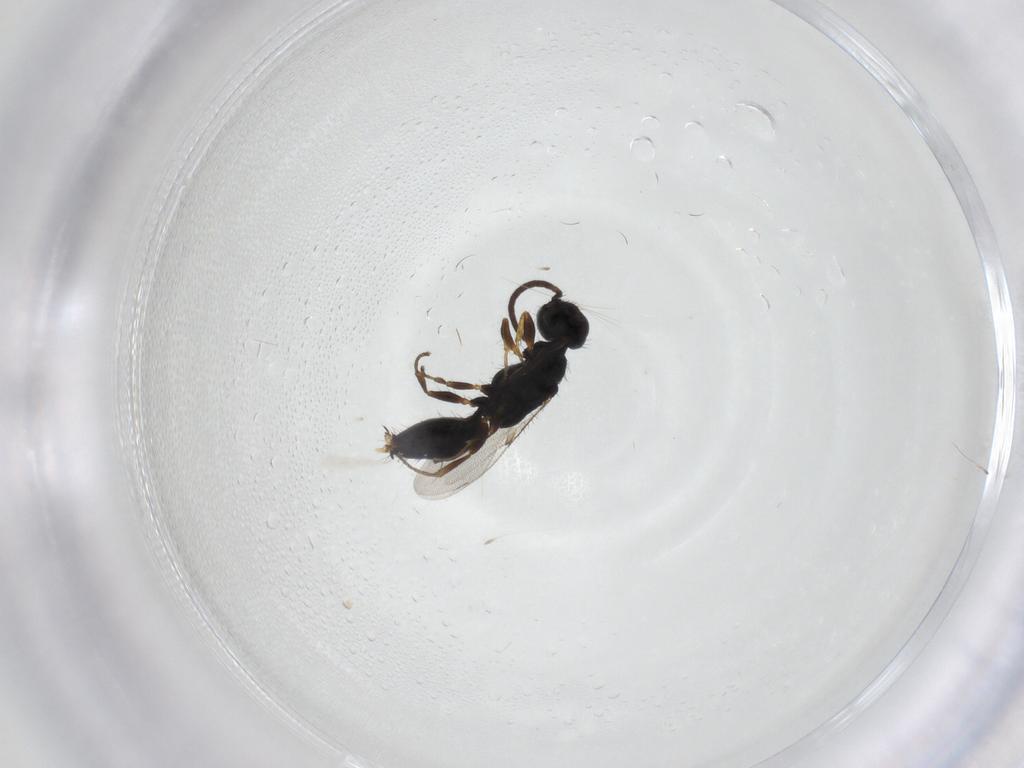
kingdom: Animalia
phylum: Arthropoda
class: Insecta
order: Hymenoptera
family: Bethylidae
